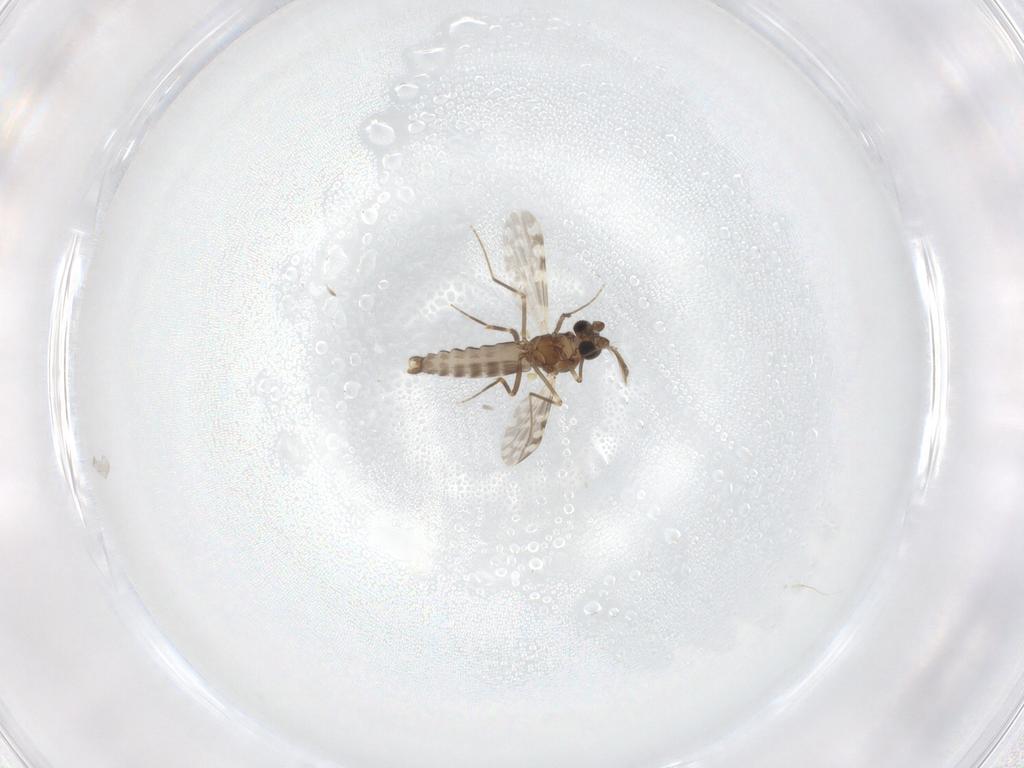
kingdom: Animalia
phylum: Arthropoda
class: Insecta
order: Diptera
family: Ceratopogonidae
